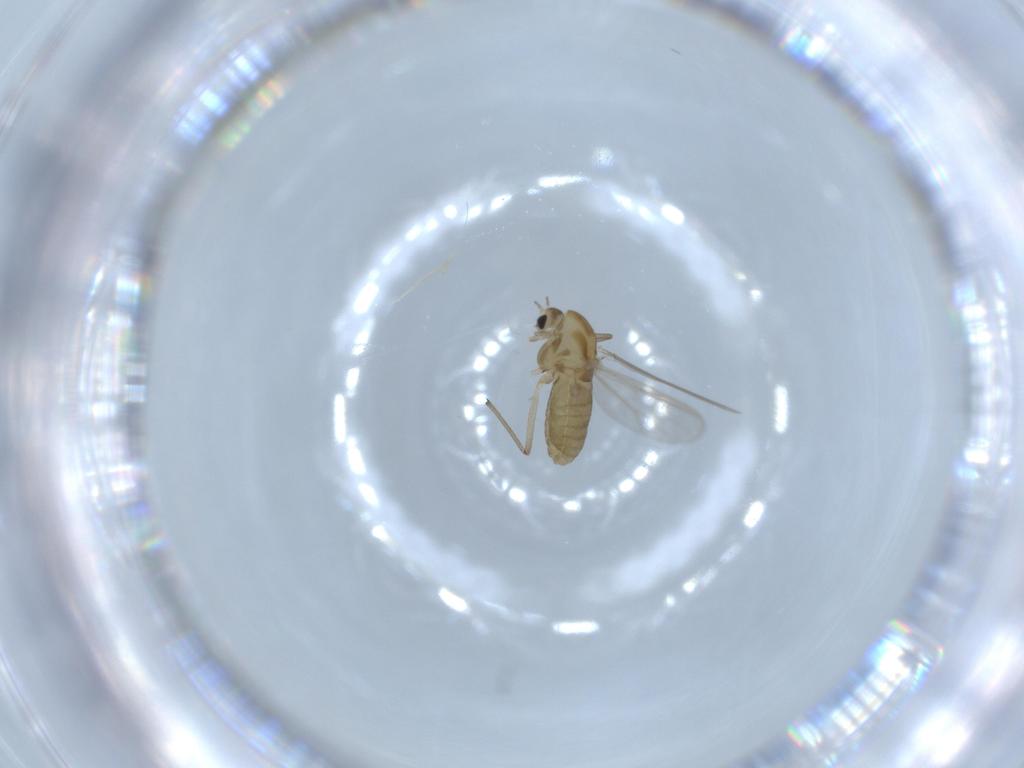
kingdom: Animalia
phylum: Arthropoda
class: Insecta
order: Diptera
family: Chironomidae
